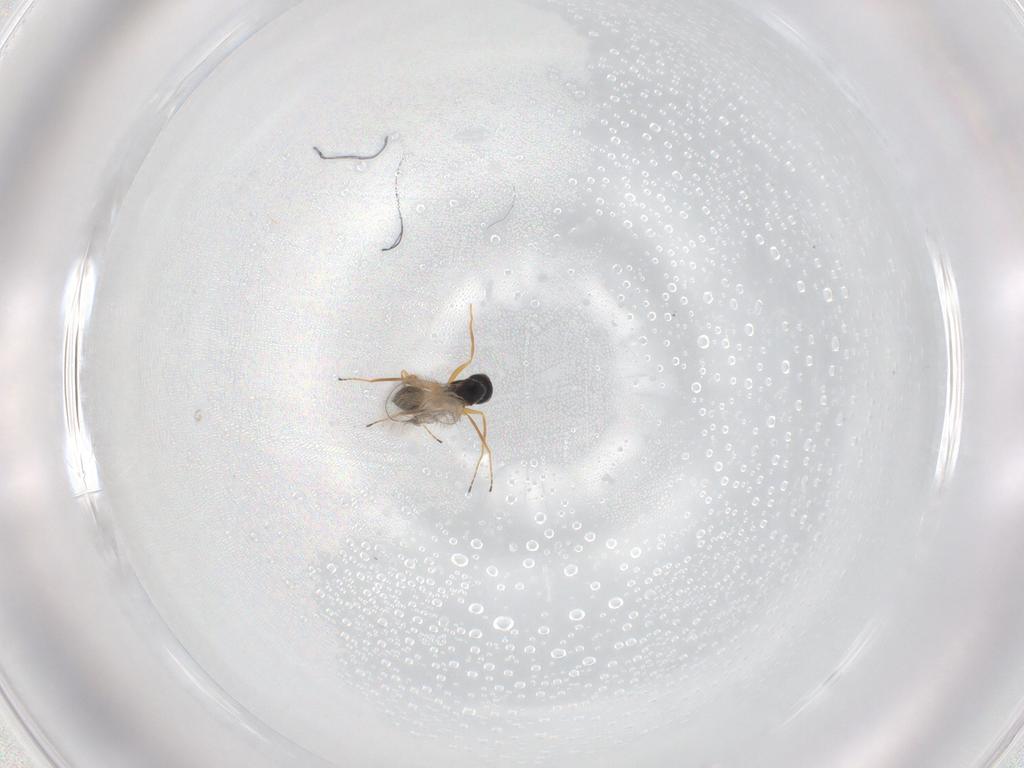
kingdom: Animalia
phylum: Arthropoda
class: Insecta
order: Hymenoptera
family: Mymaridae
